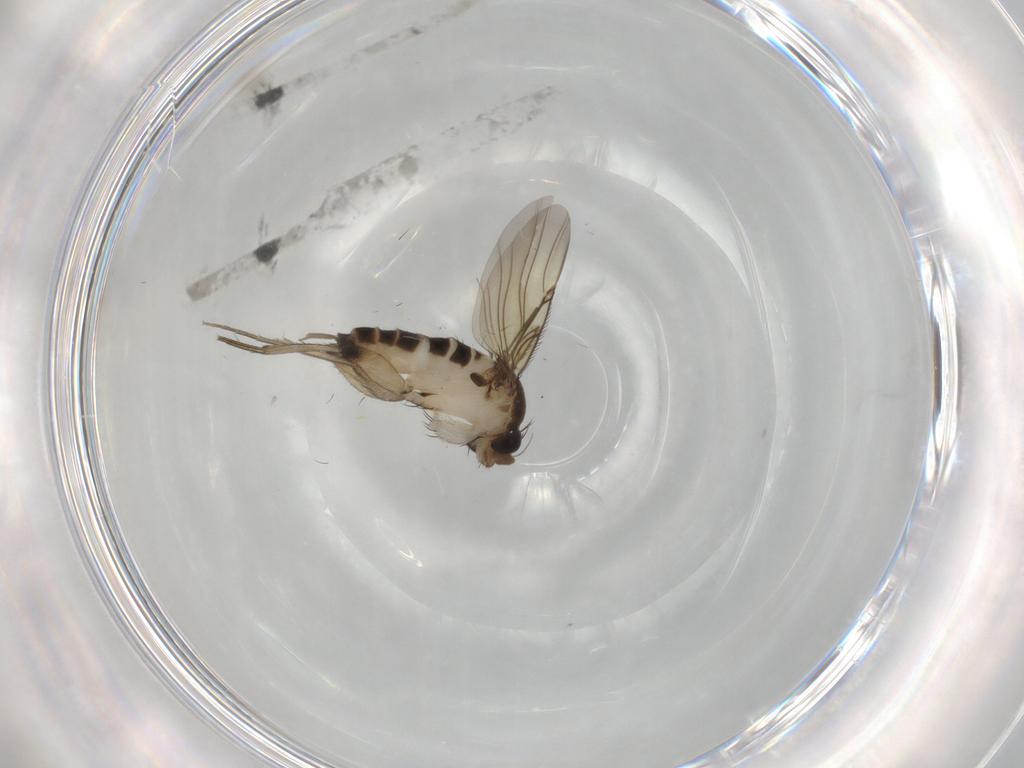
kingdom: Animalia
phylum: Arthropoda
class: Insecta
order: Diptera
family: Phoridae
